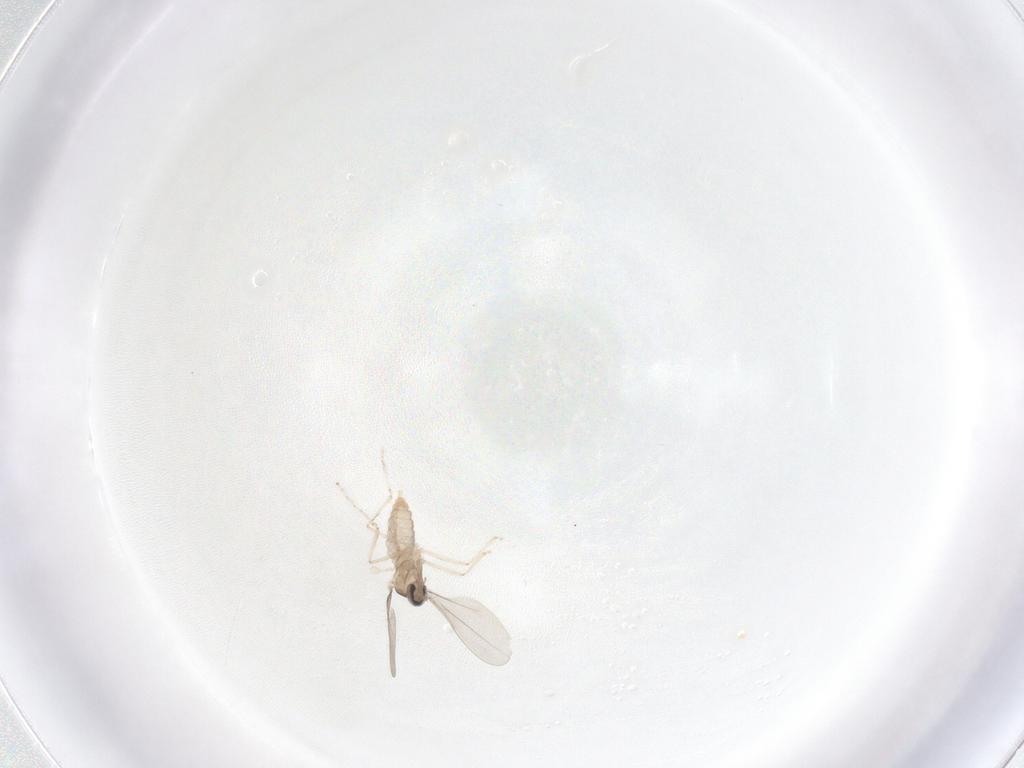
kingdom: Animalia
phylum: Arthropoda
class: Insecta
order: Diptera
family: Cecidomyiidae
